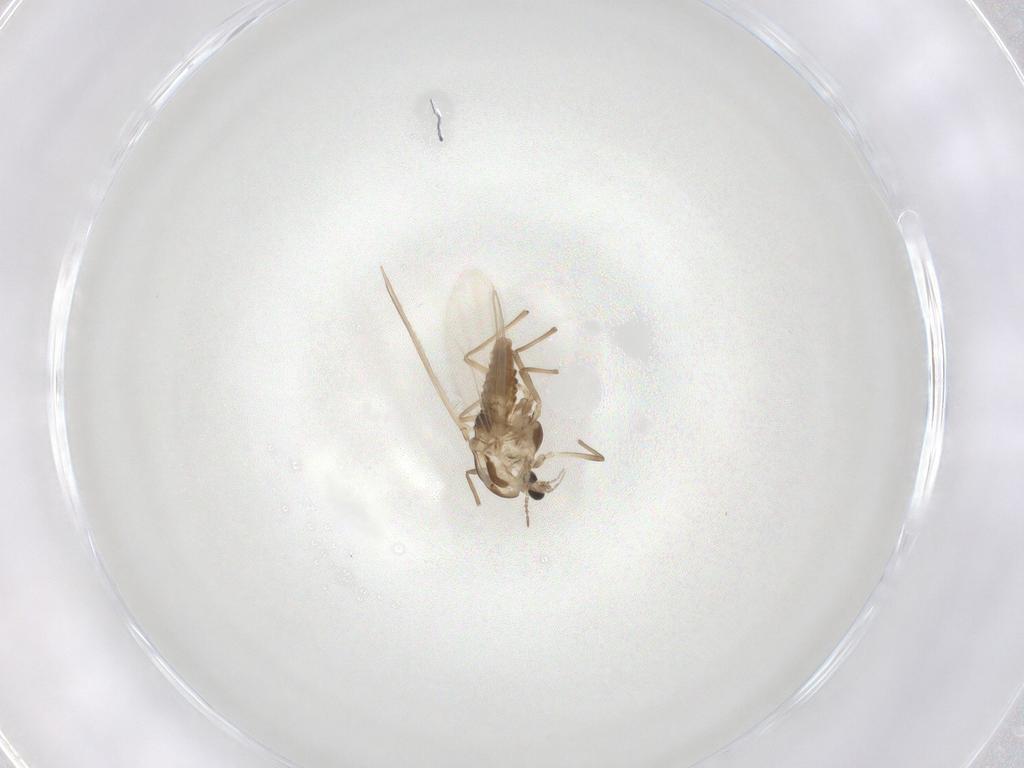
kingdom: Animalia
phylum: Arthropoda
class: Insecta
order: Diptera
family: Chironomidae
